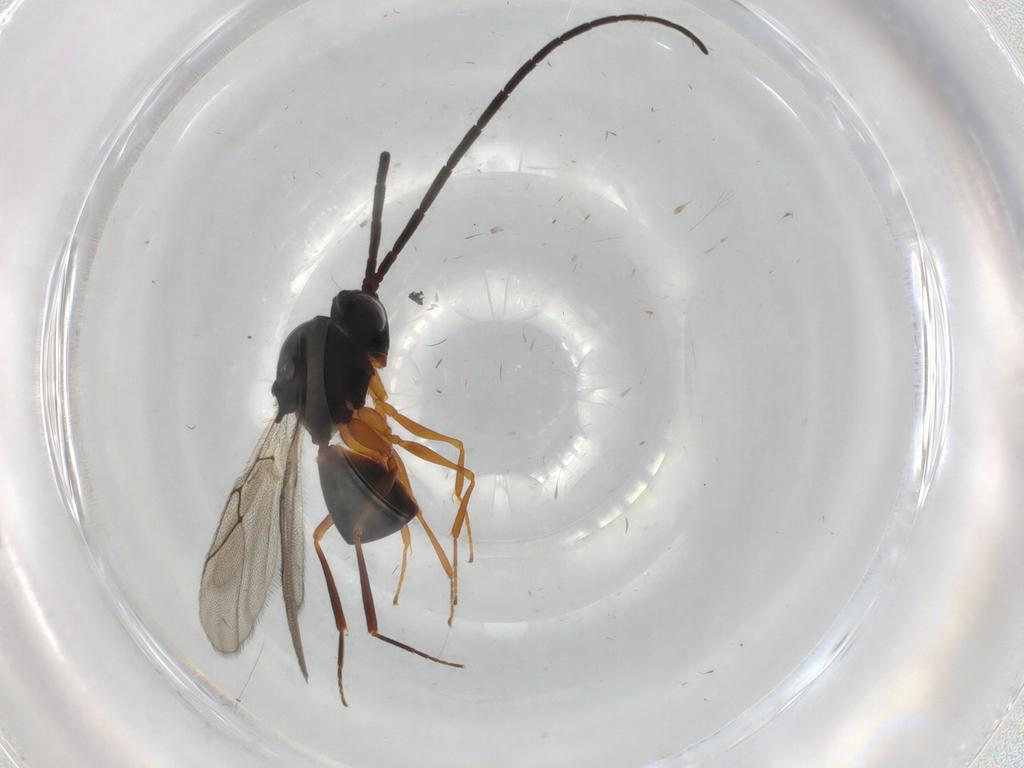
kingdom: Animalia
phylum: Arthropoda
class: Insecta
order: Hymenoptera
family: Figitidae
